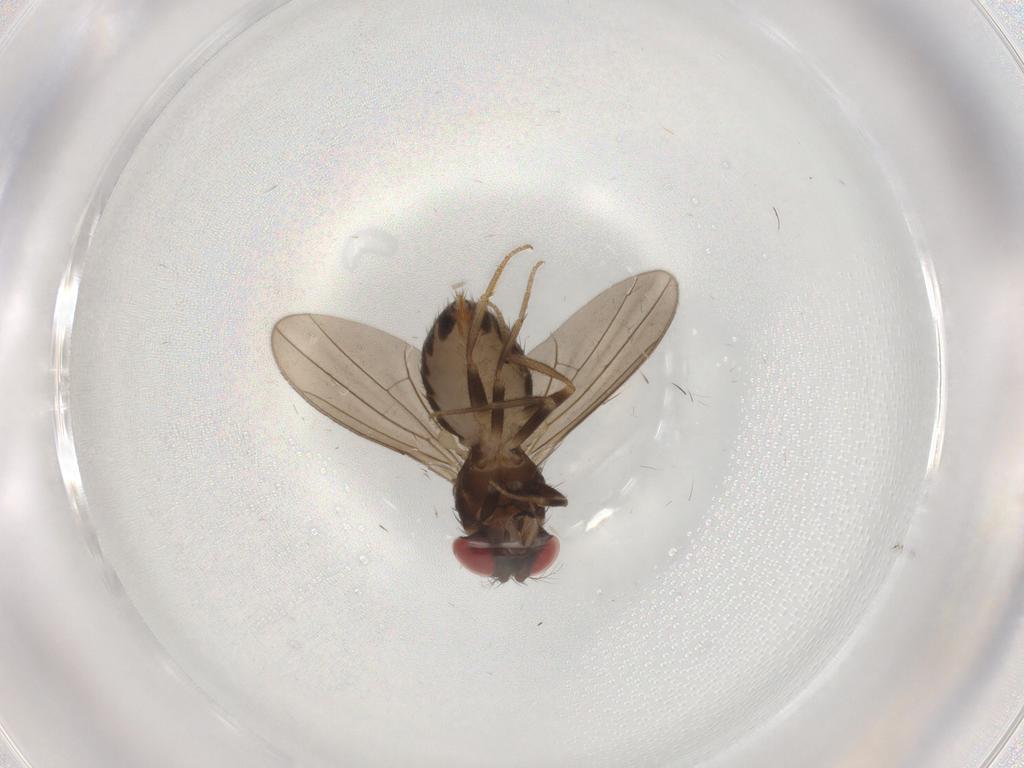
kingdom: Animalia
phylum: Arthropoda
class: Insecta
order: Diptera
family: Drosophilidae
